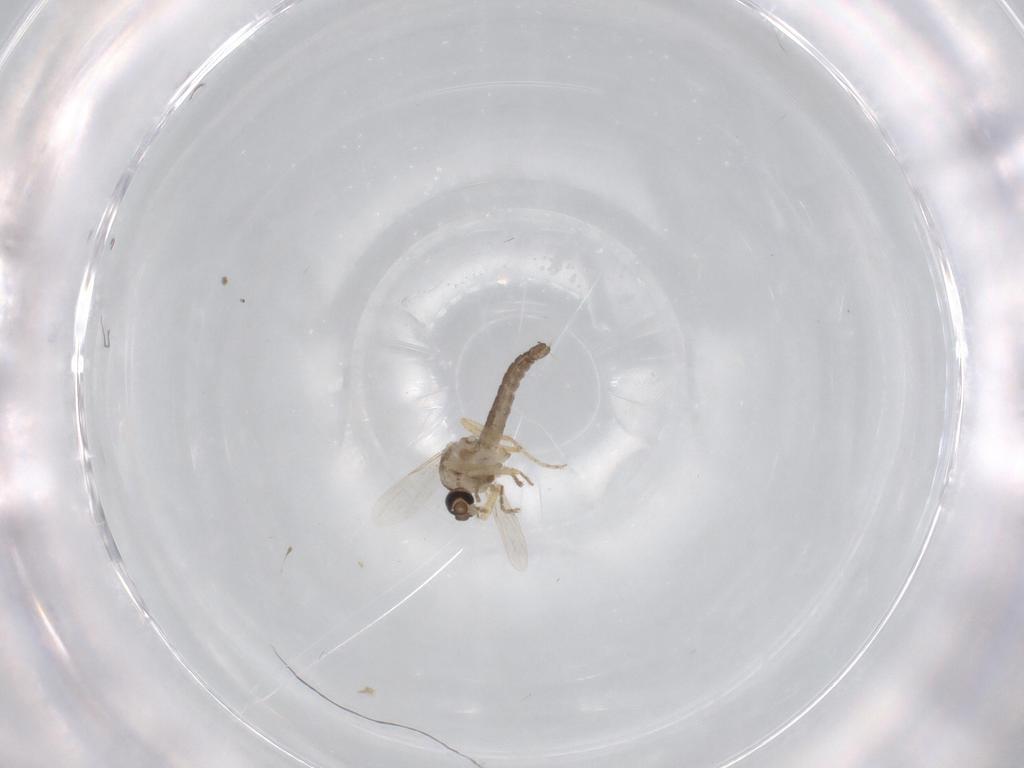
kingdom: Animalia
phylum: Arthropoda
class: Insecta
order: Diptera
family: Ceratopogonidae
